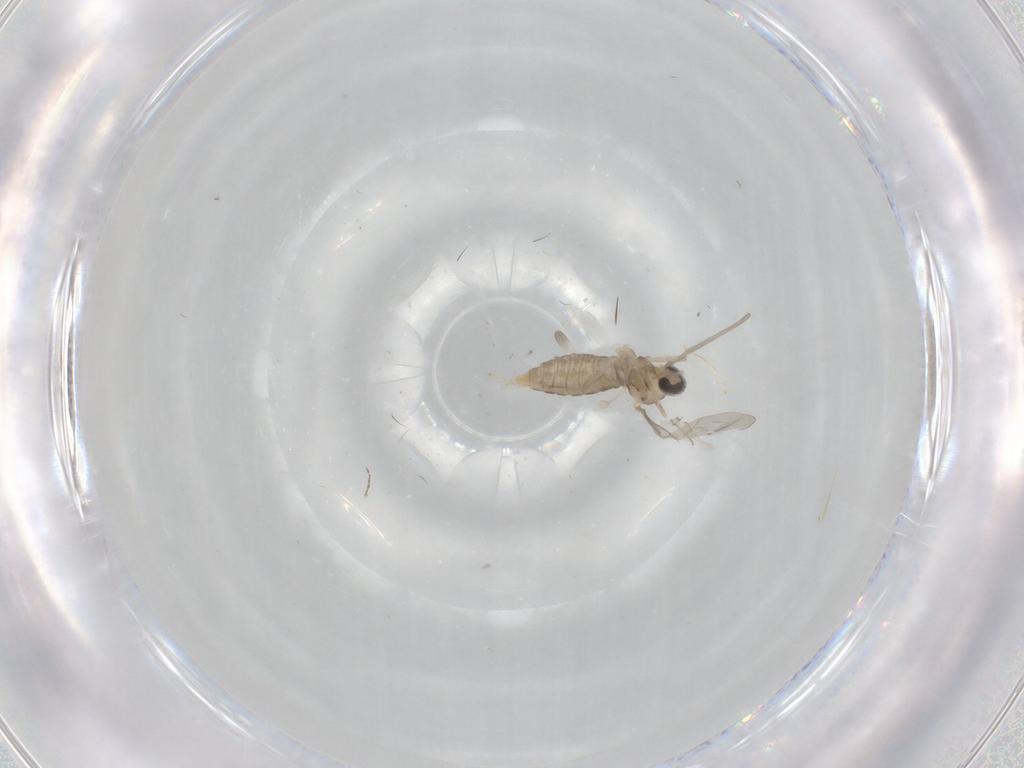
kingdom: Animalia
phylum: Arthropoda
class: Insecta
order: Diptera
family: Cecidomyiidae
